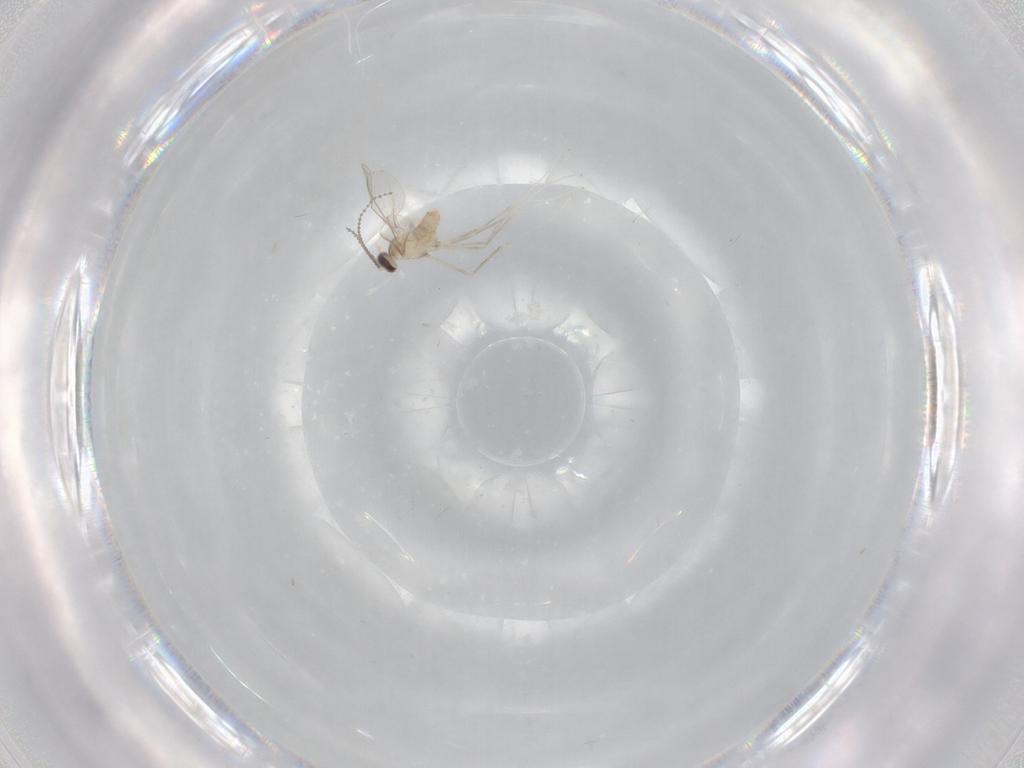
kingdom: Animalia
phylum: Arthropoda
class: Insecta
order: Diptera
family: Cecidomyiidae
